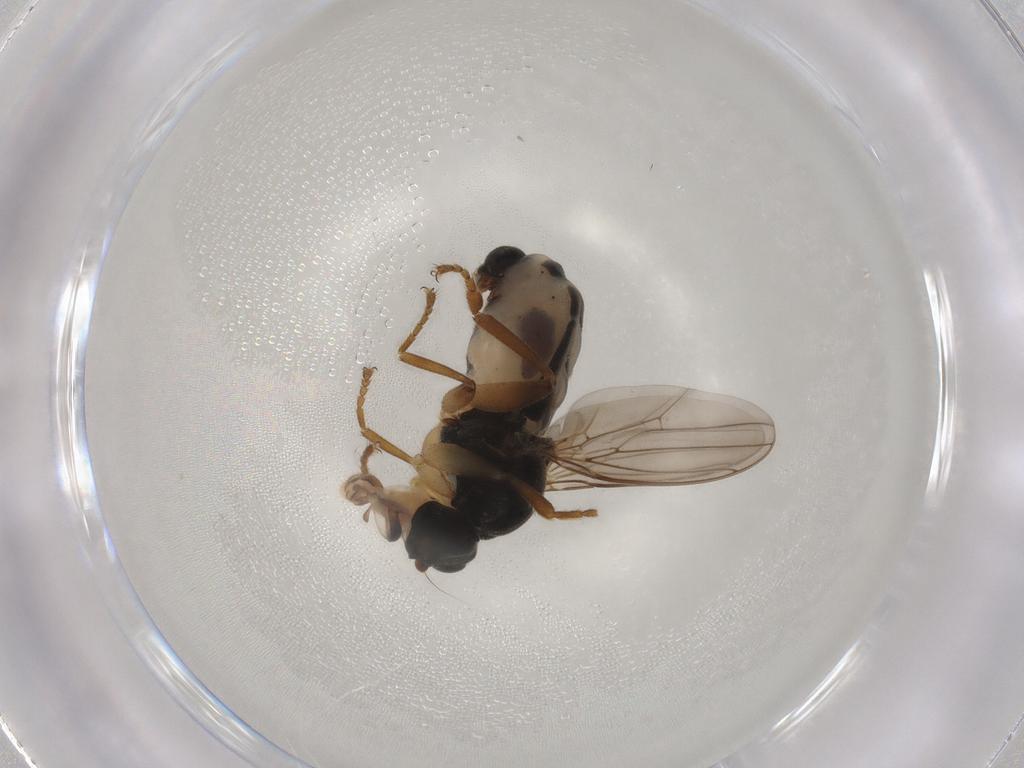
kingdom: Animalia
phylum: Arthropoda
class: Insecta
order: Diptera
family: Sphaeroceridae
